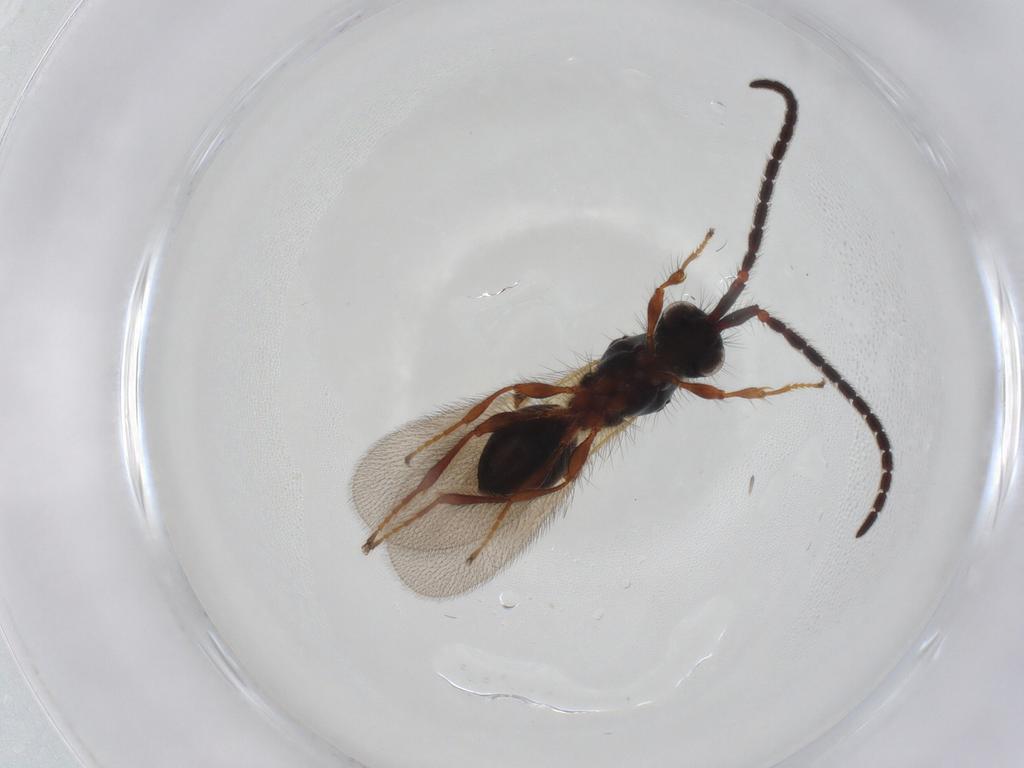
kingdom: Animalia
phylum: Arthropoda
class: Insecta
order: Hymenoptera
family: Diapriidae
